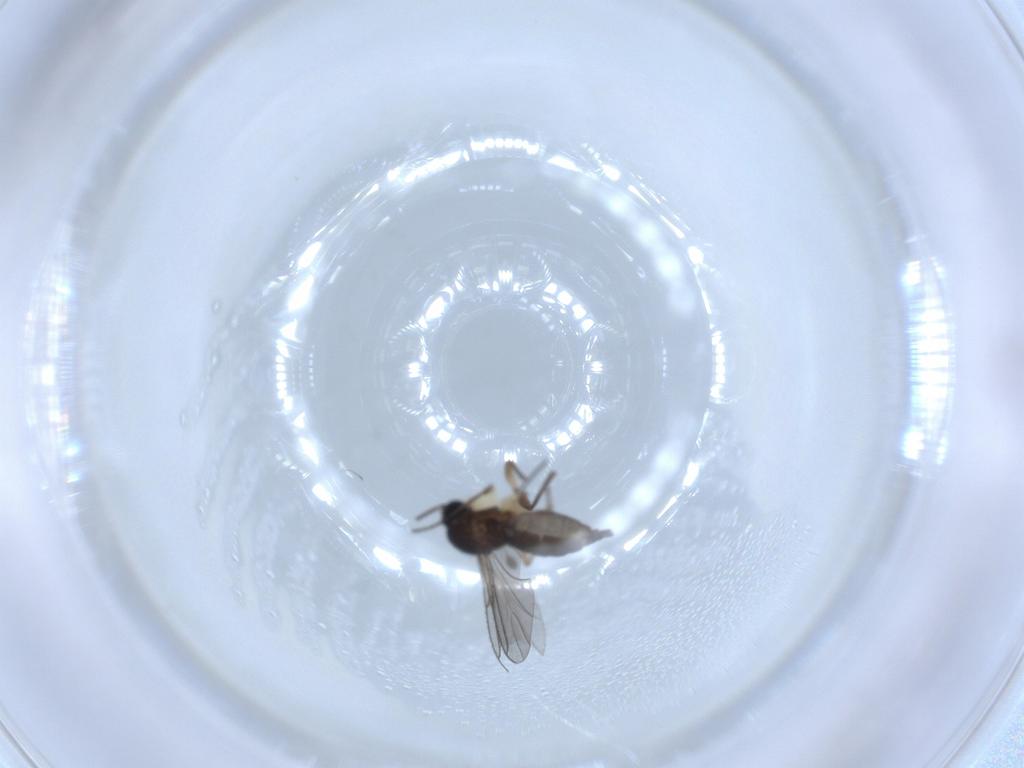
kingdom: Animalia
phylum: Arthropoda
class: Insecta
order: Diptera
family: Sciaridae
